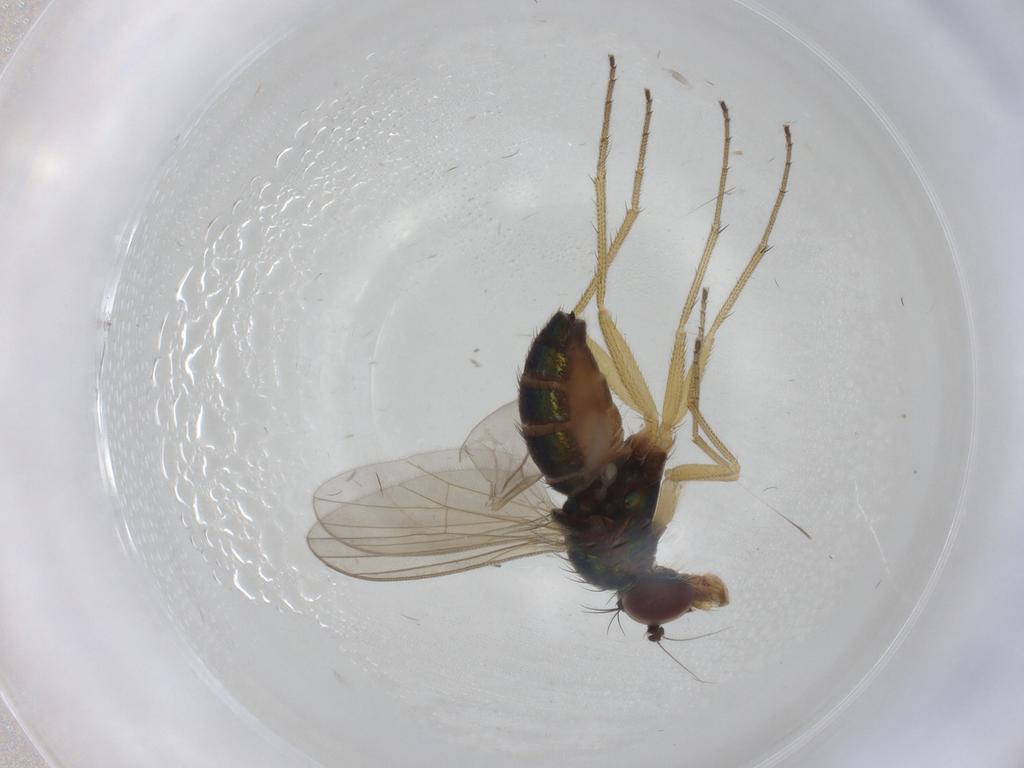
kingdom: Animalia
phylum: Arthropoda
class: Insecta
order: Diptera
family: Dolichopodidae
